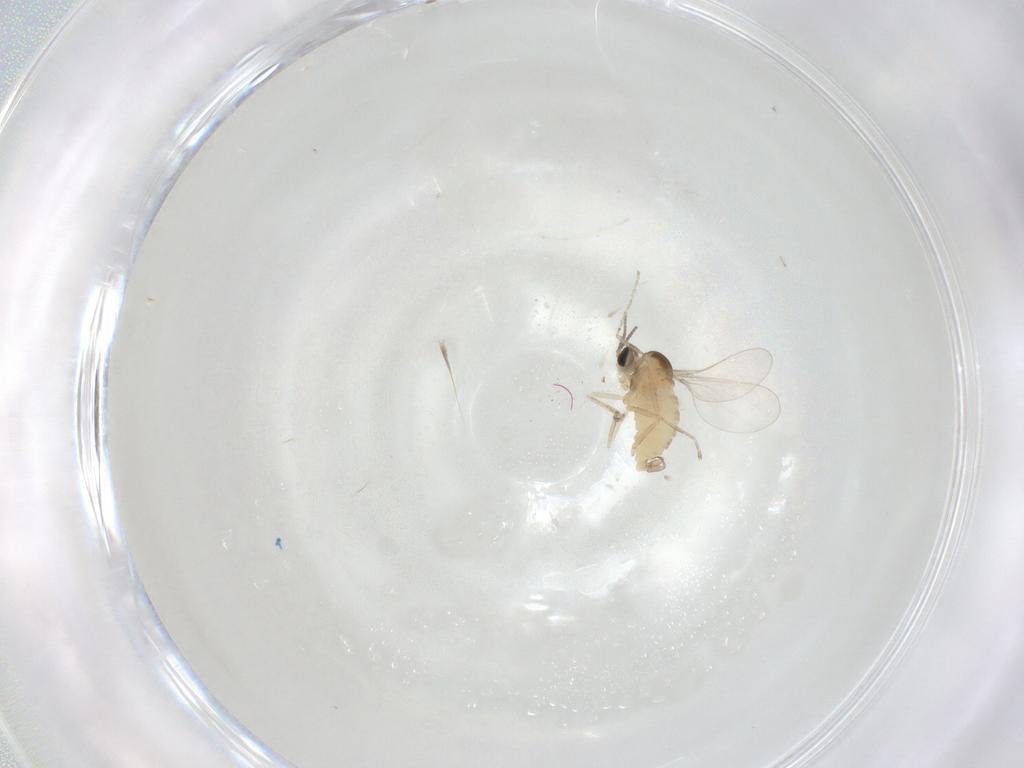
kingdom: Animalia
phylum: Arthropoda
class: Insecta
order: Diptera
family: Cecidomyiidae
